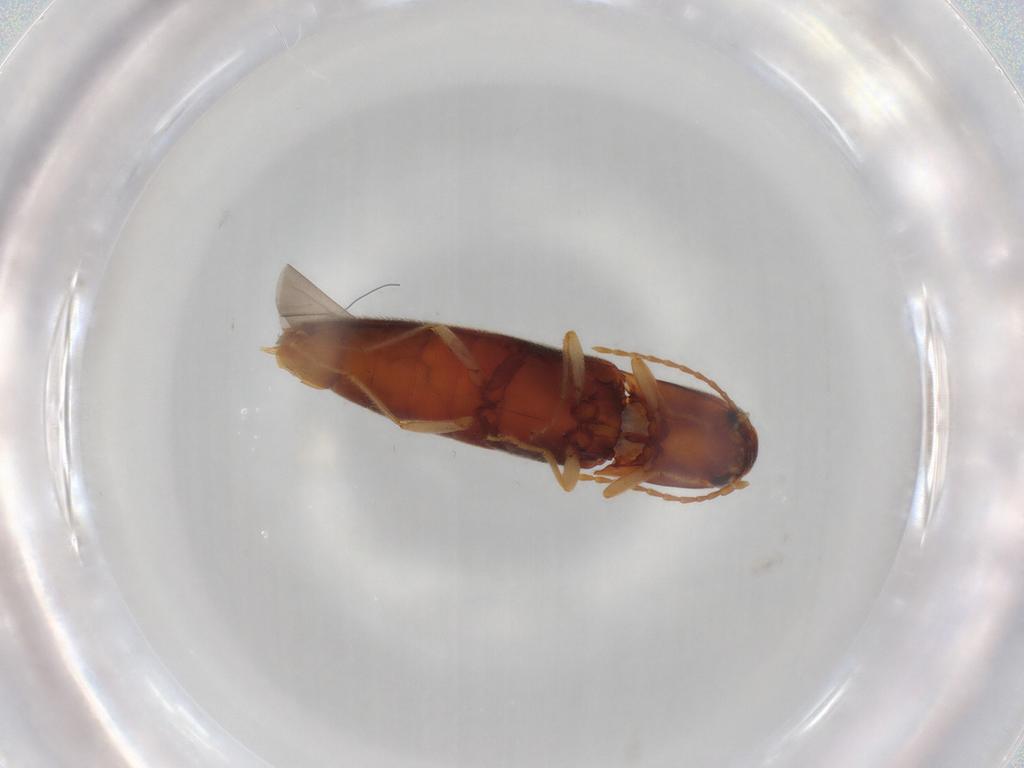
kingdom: Animalia
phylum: Arthropoda
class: Insecta
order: Coleoptera
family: Elateridae
